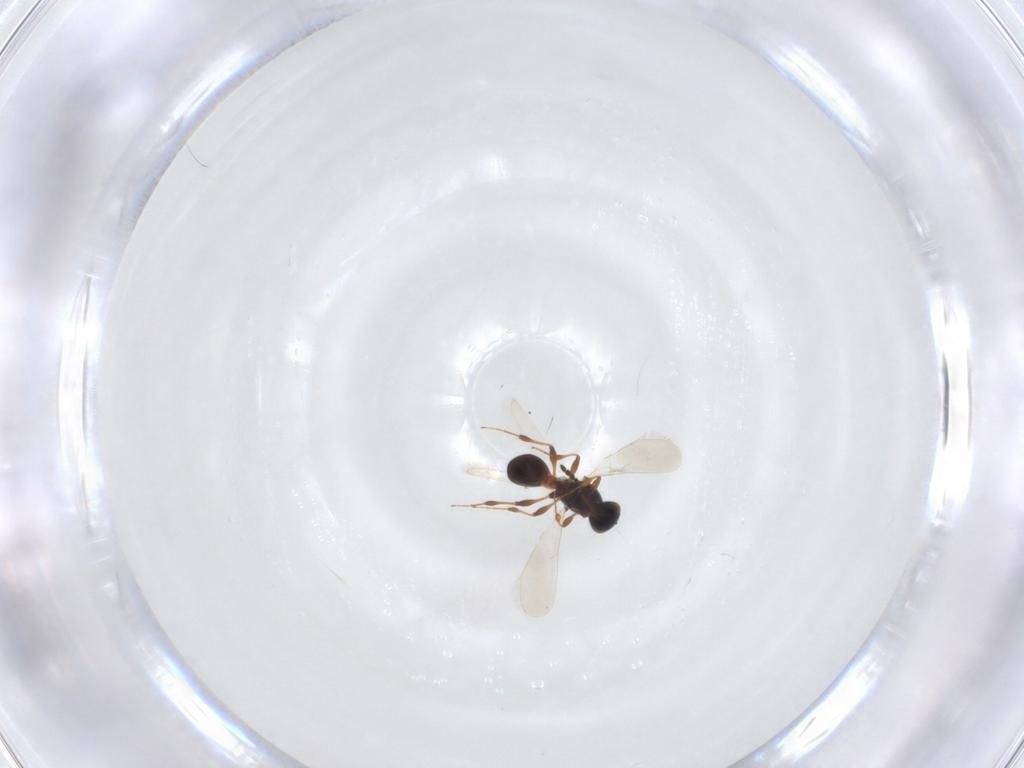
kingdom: Animalia
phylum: Arthropoda
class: Insecta
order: Hymenoptera
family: Platygastridae
